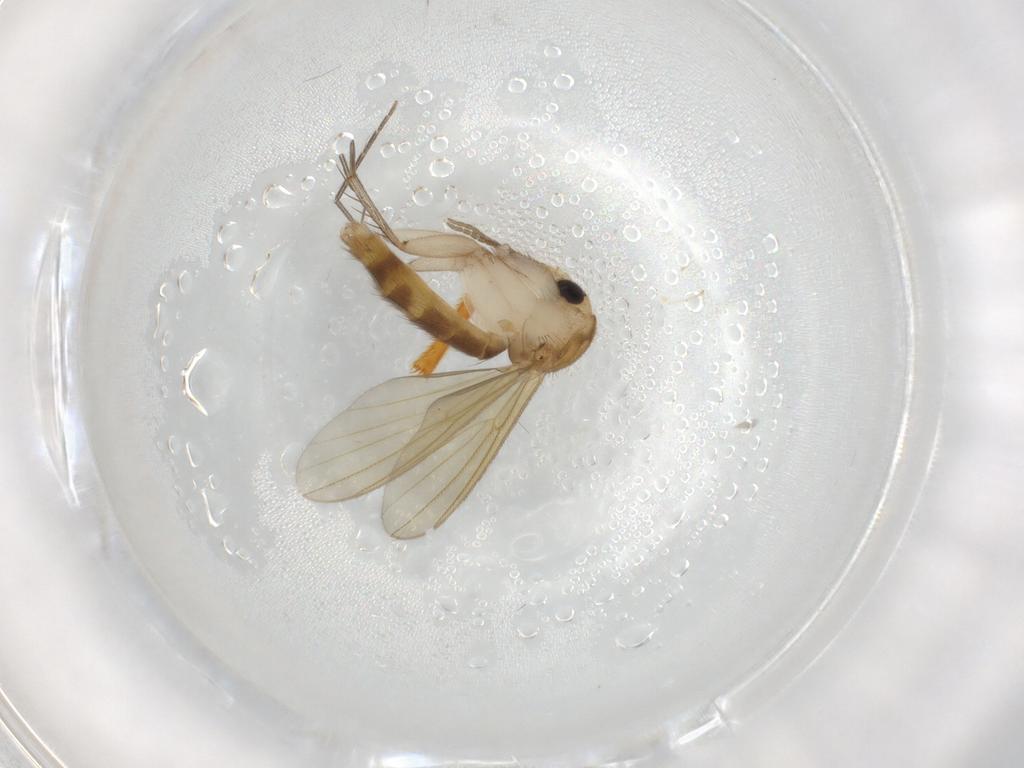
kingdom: Animalia
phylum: Arthropoda
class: Insecta
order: Diptera
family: Mycetophilidae
